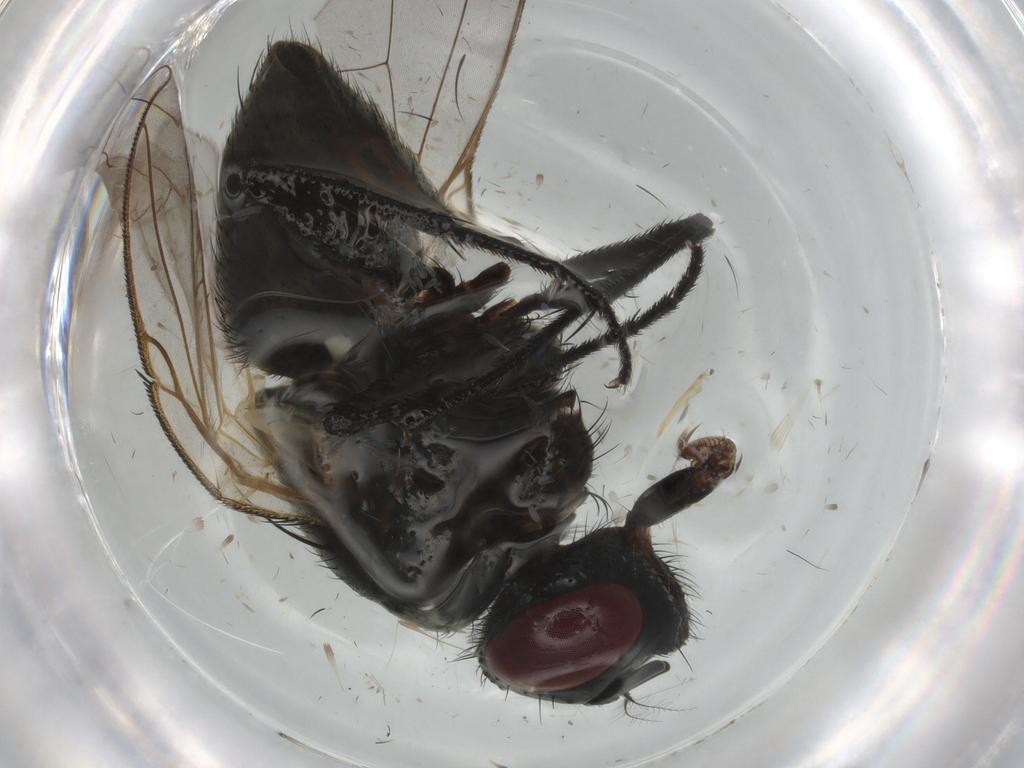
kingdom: Animalia
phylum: Arthropoda
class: Insecta
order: Diptera
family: Muscidae
